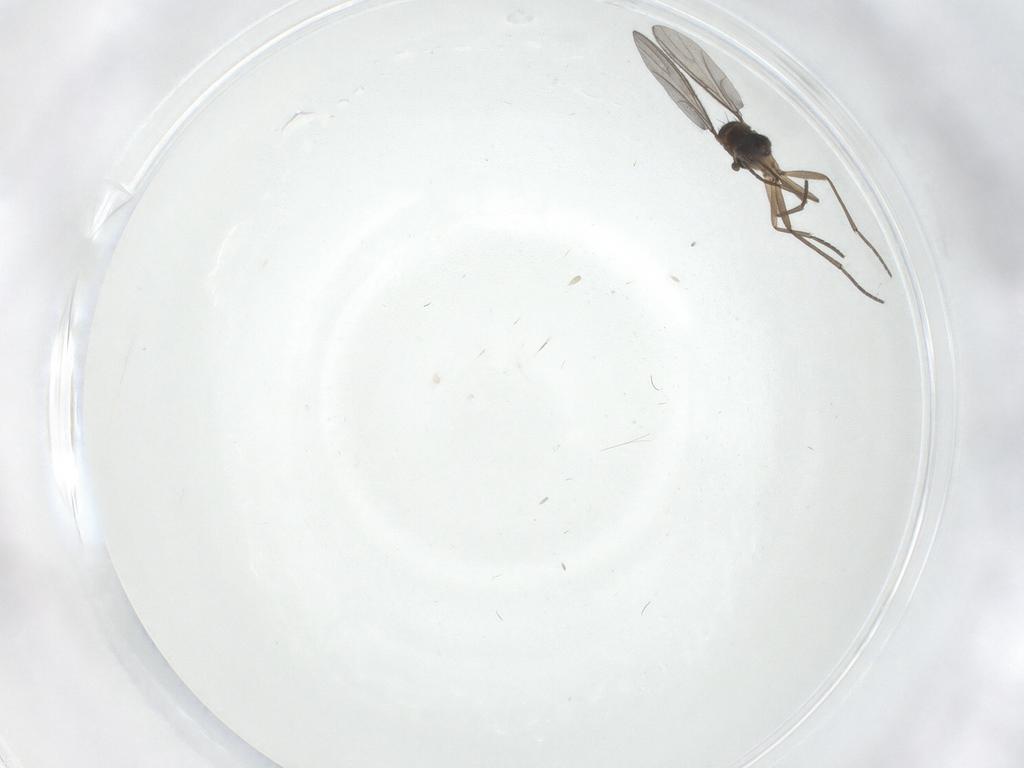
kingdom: Animalia
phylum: Arthropoda
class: Insecta
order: Diptera
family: Sciaridae
